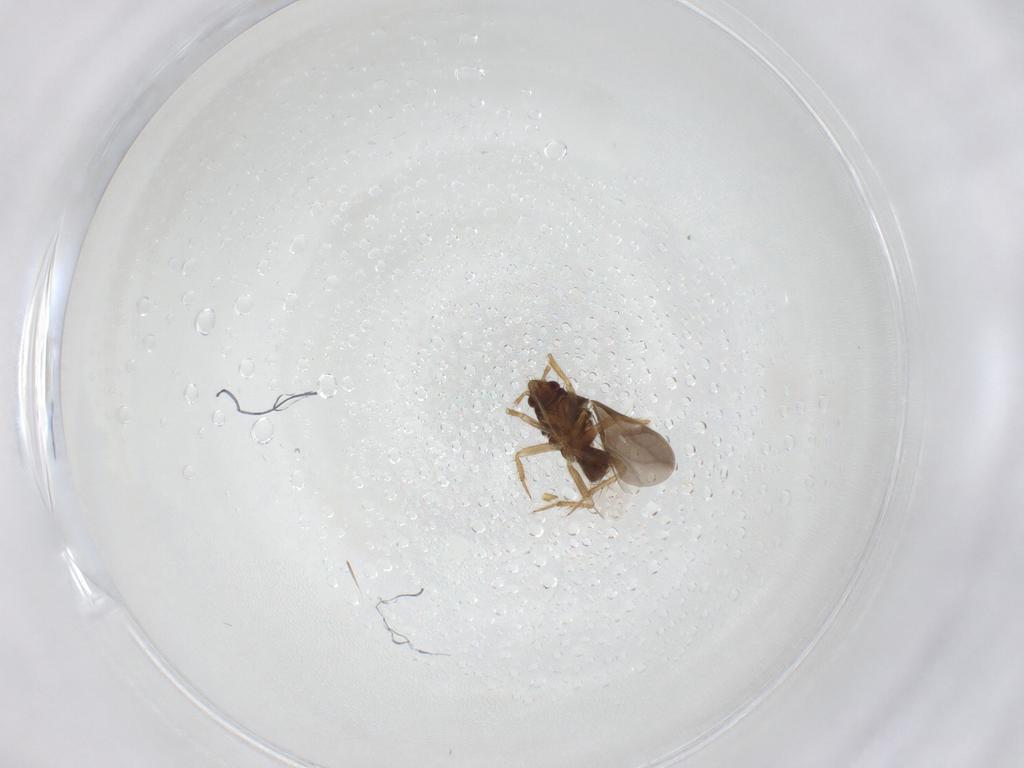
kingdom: Animalia
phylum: Arthropoda
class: Insecta
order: Hemiptera
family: Ceratocombidae
